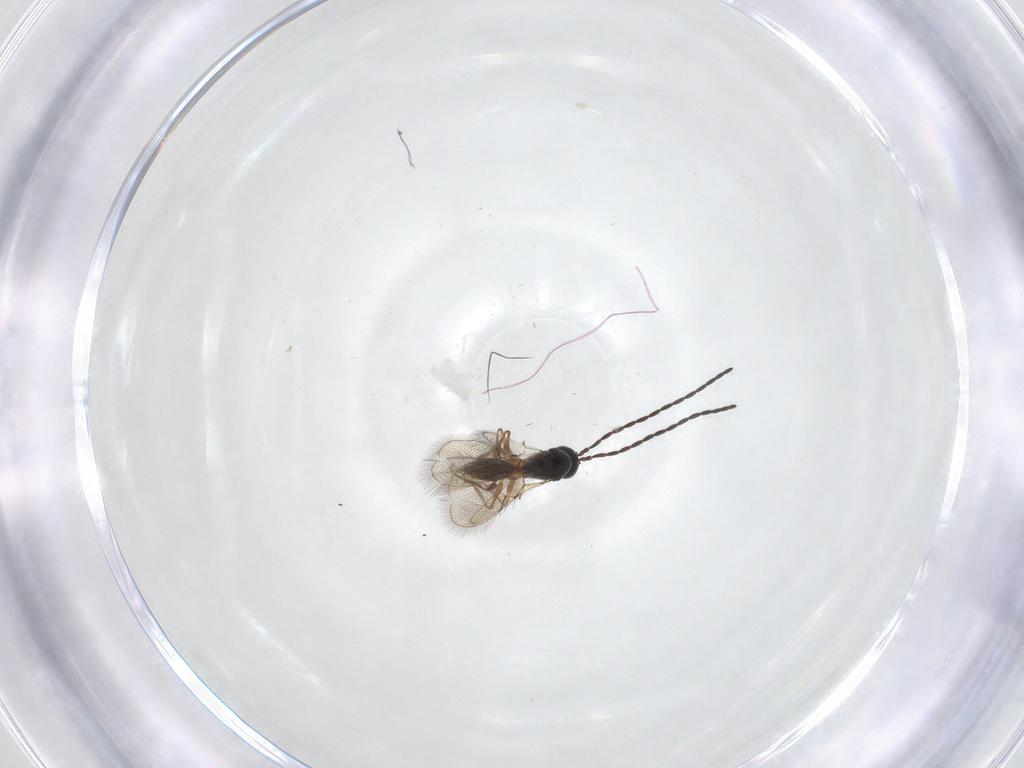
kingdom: Animalia
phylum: Arthropoda
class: Insecta
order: Hymenoptera
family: Figitidae
